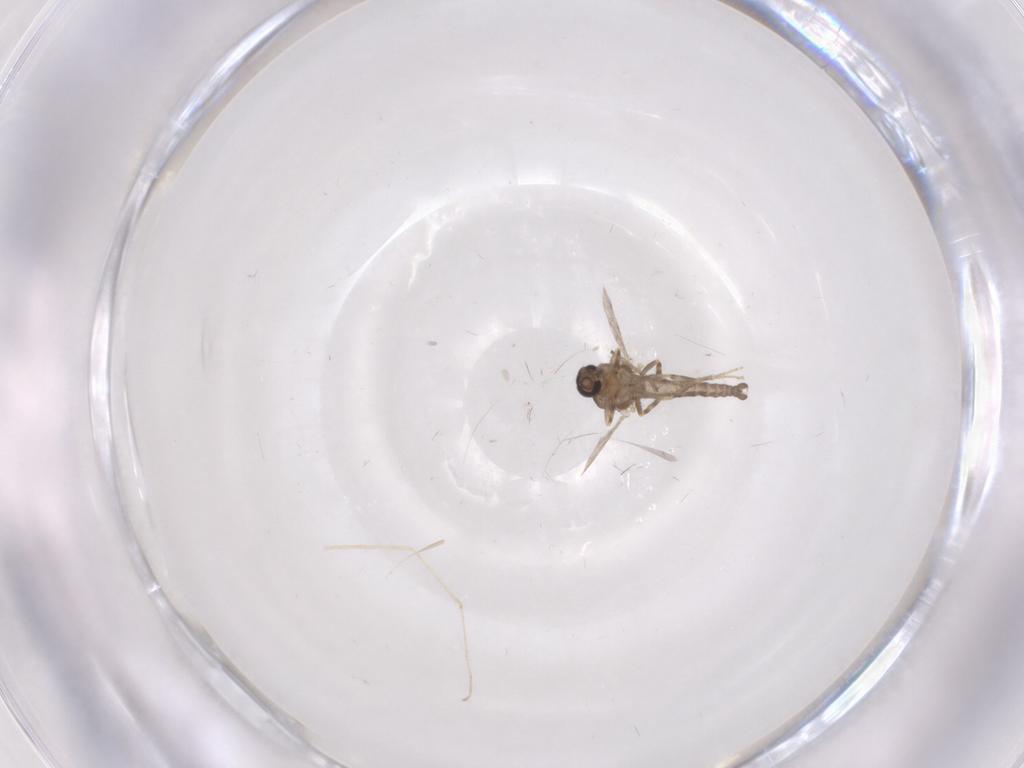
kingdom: Animalia
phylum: Arthropoda
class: Insecta
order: Diptera
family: Ceratopogonidae
